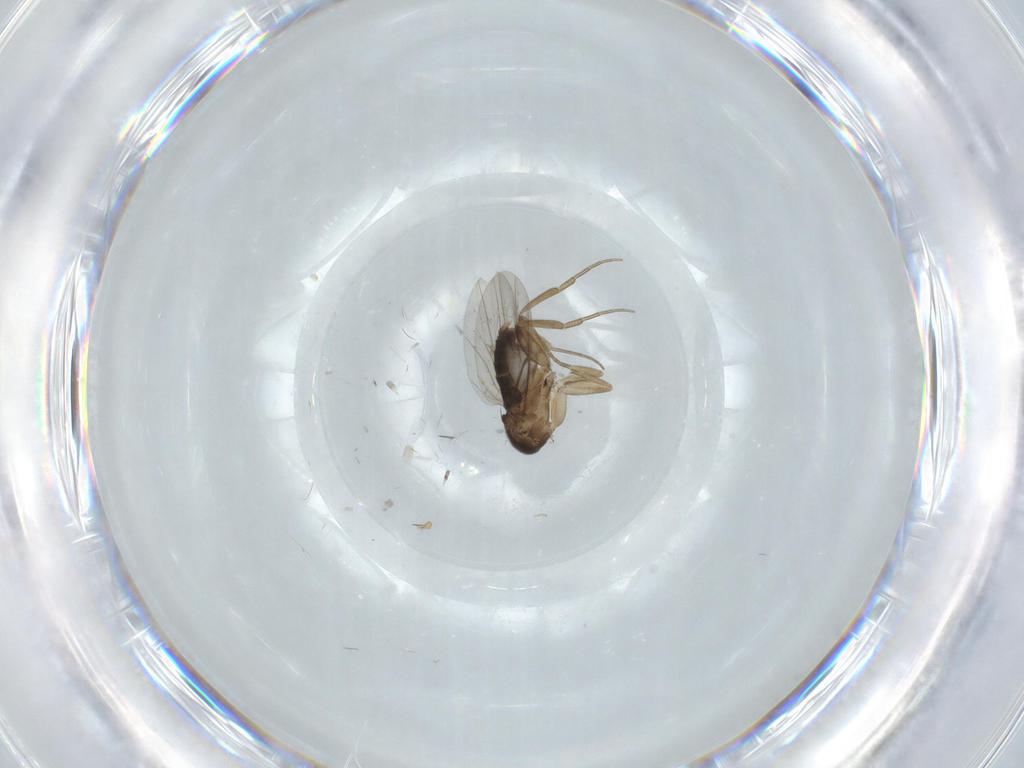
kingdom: Animalia
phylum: Arthropoda
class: Insecta
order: Diptera
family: Phoridae
